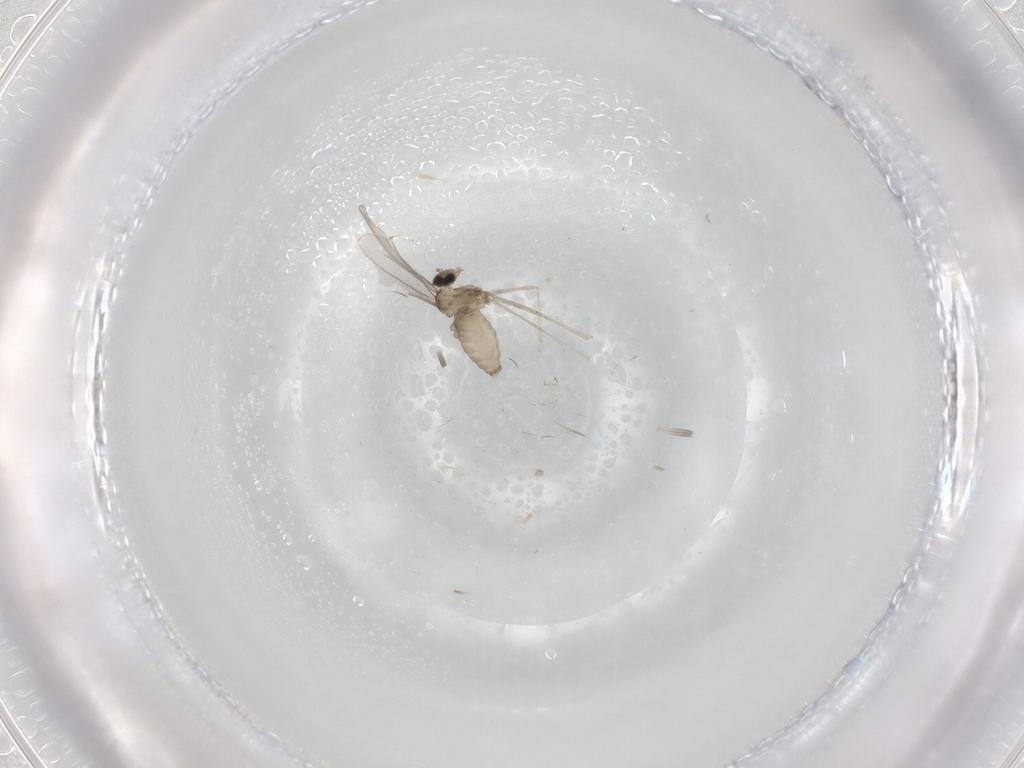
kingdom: Animalia
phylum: Arthropoda
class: Insecta
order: Diptera
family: Cecidomyiidae
